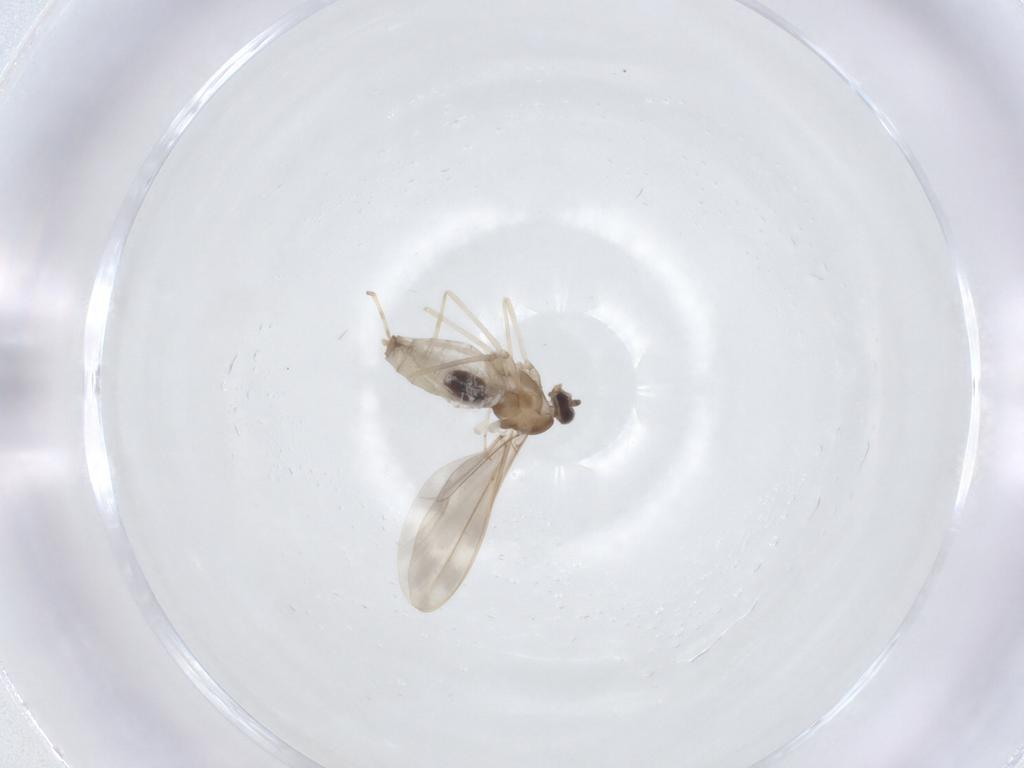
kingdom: Animalia
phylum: Arthropoda
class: Insecta
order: Diptera
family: Cecidomyiidae
